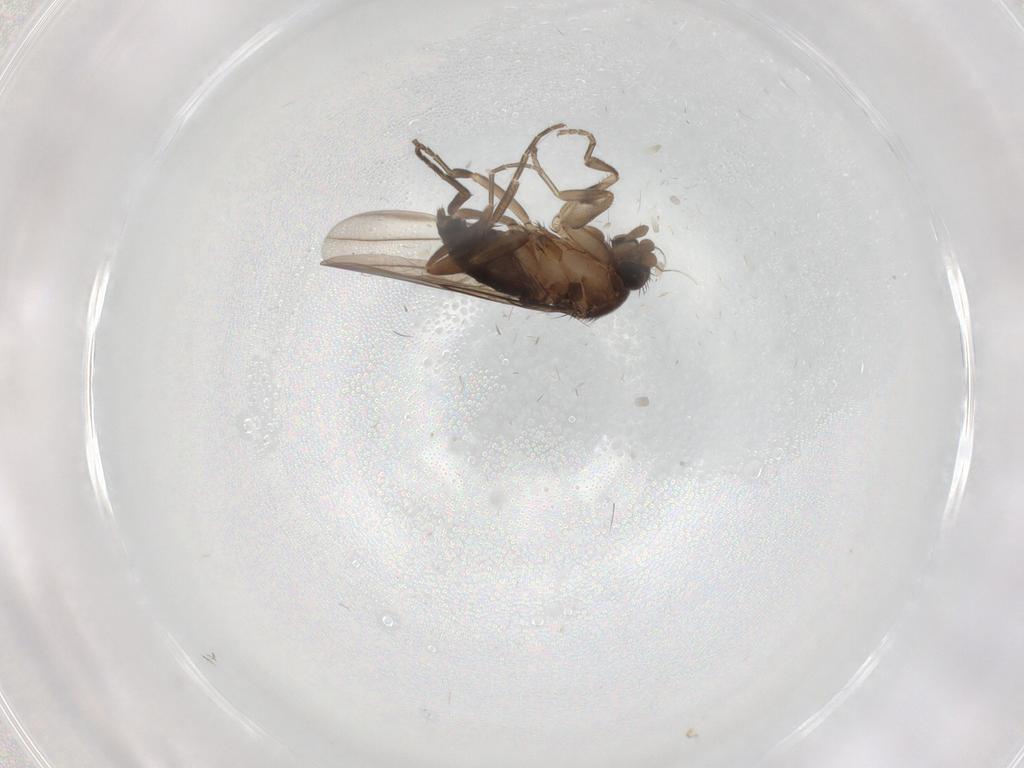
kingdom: Animalia
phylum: Arthropoda
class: Insecta
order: Diptera
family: Phoridae
